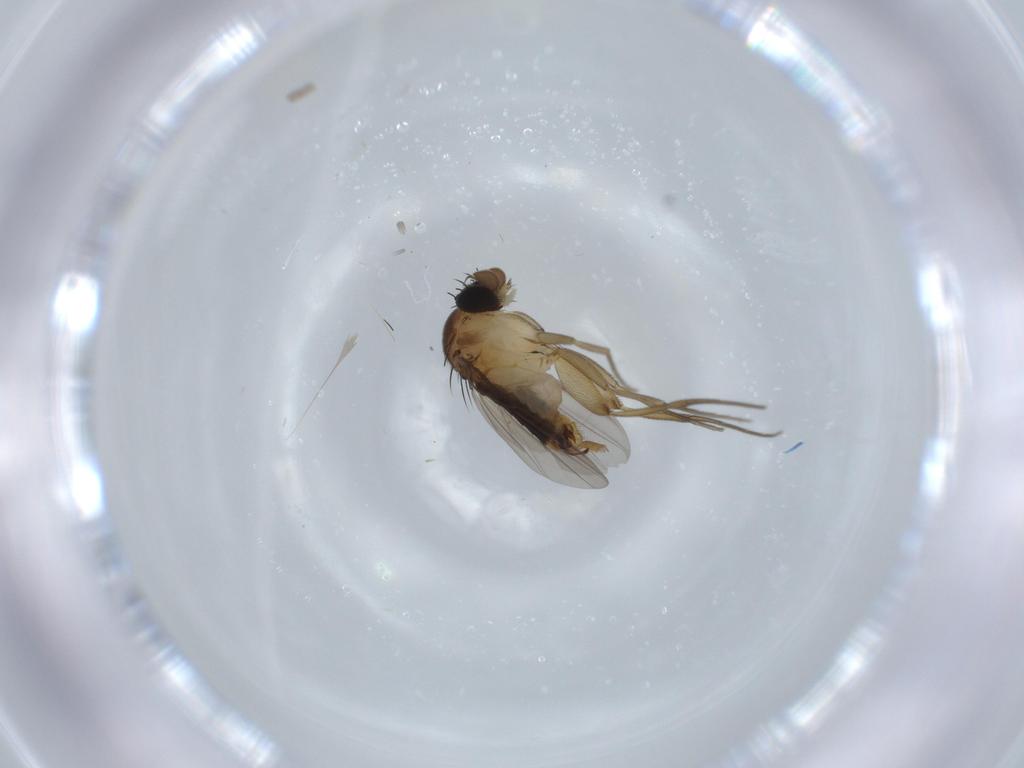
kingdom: Animalia
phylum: Arthropoda
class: Insecta
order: Diptera
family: Phoridae
